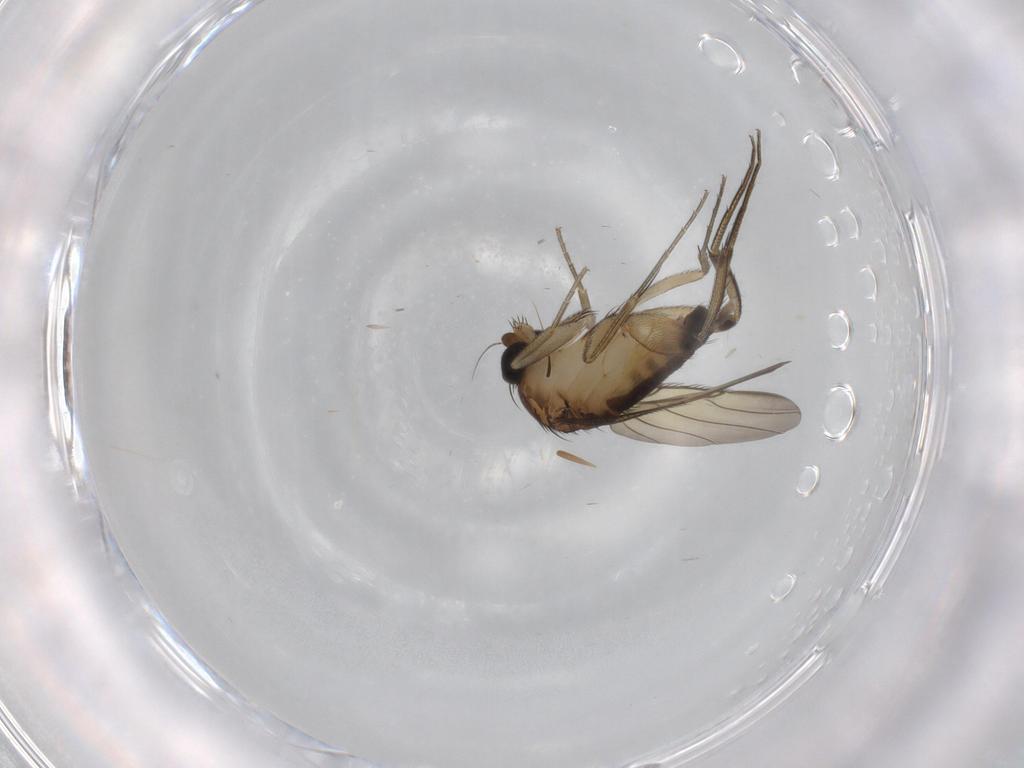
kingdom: Animalia
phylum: Arthropoda
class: Insecta
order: Diptera
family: Phoridae
